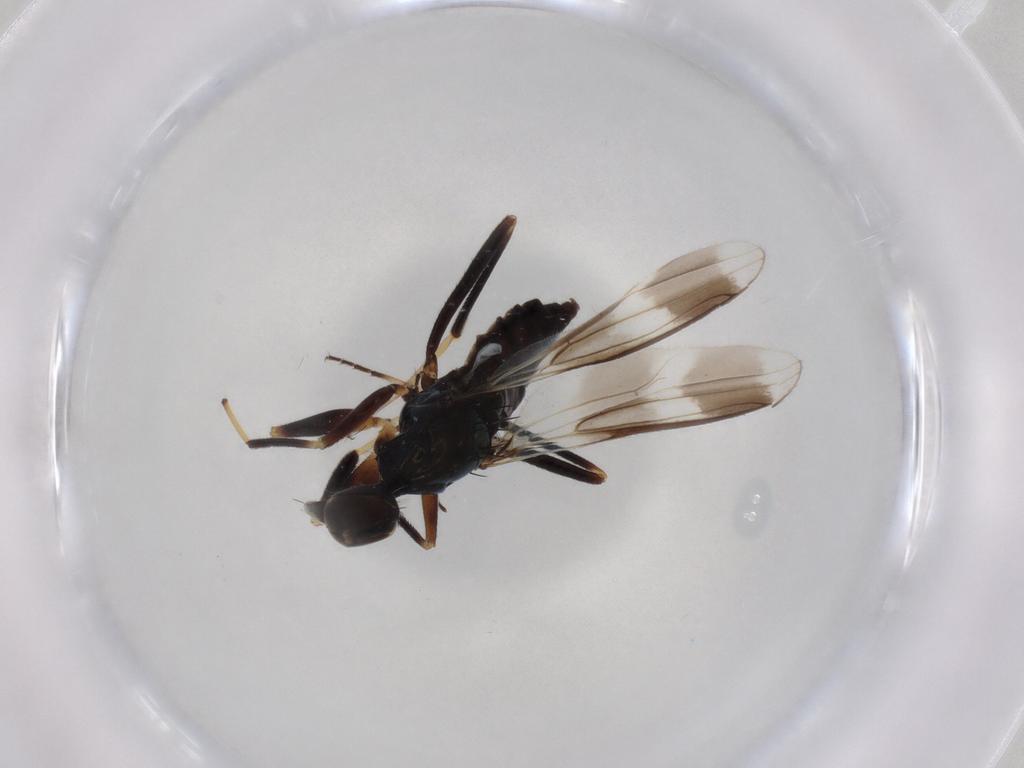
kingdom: Animalia
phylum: Arthropoda
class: Insecta
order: Diptera
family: Hybotidae
